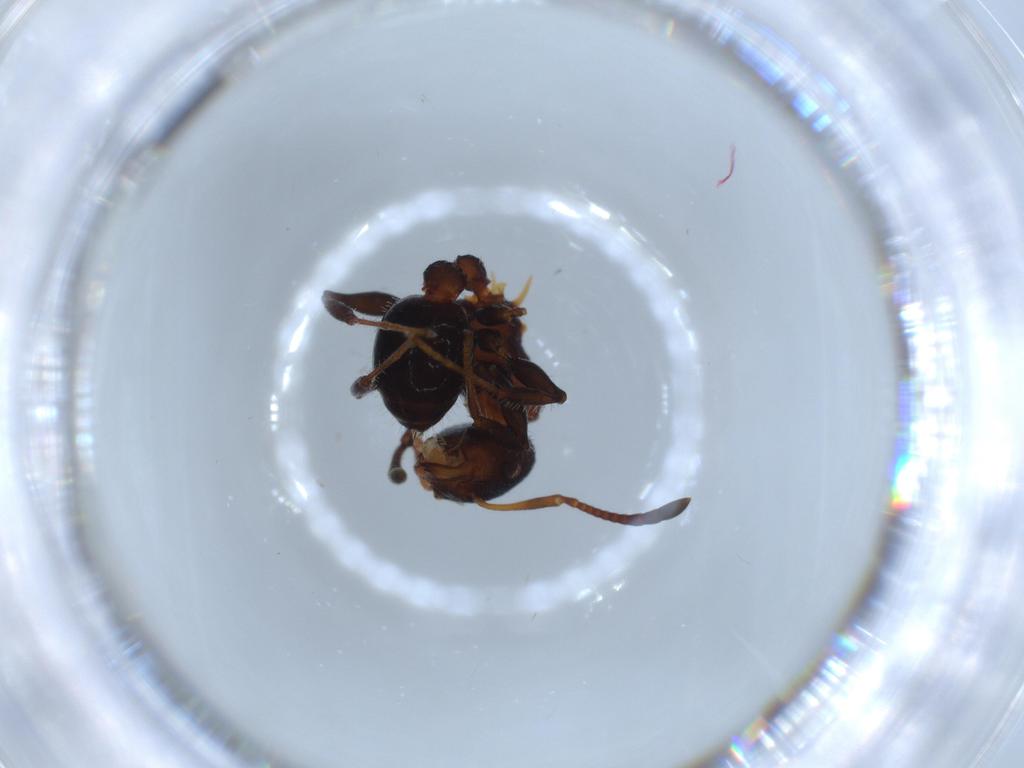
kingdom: Animalia
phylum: Arthropoda
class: Insecta
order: Hymenoptera
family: Formicidae
